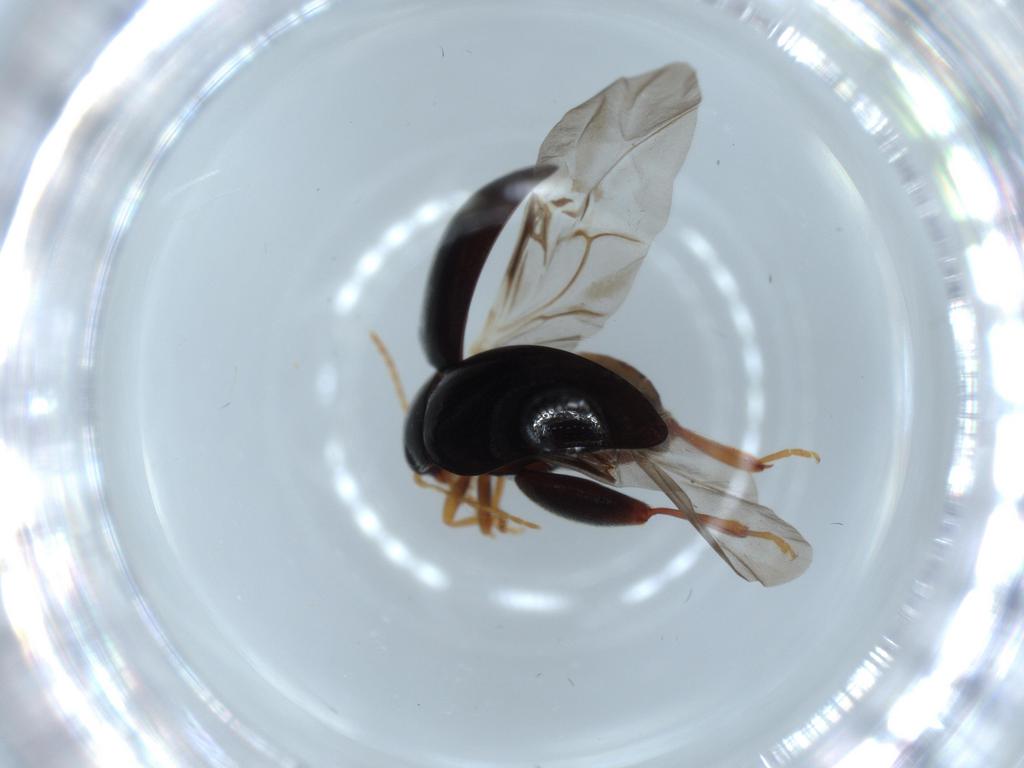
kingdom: Animalia
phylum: Arthropoda
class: Insecta
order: Coleoptera
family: Chrysomelidae
